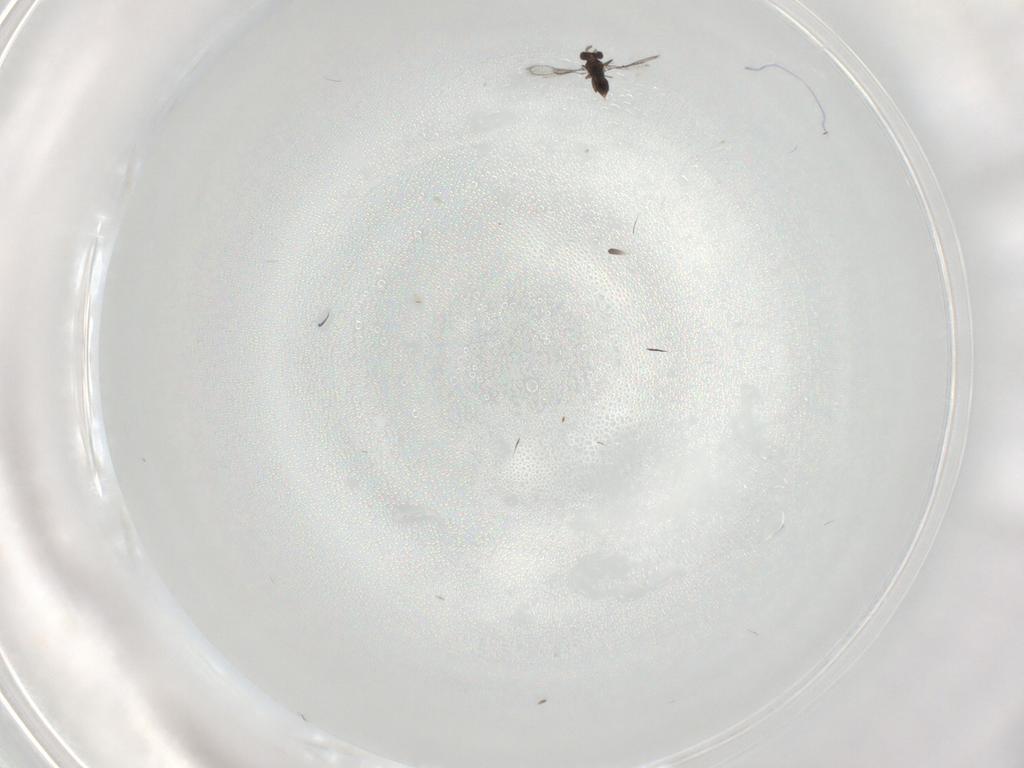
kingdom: Animalia
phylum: Arthropoda
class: Insecta
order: Hymenoptera
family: Trichogrammatidae
